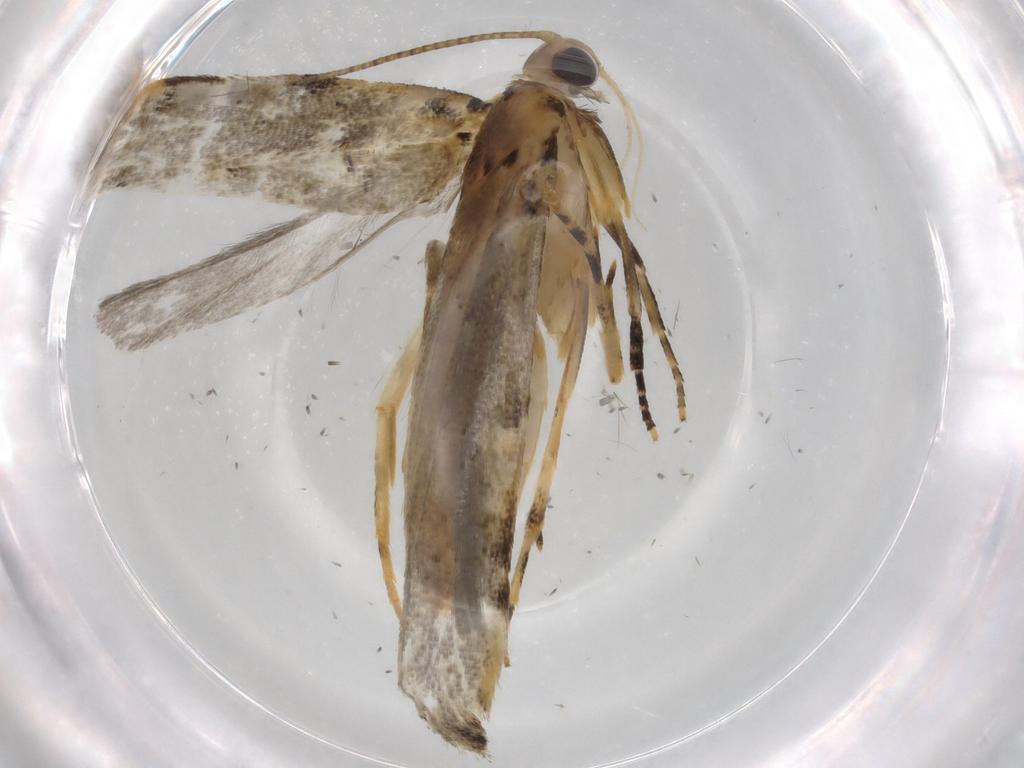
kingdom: Animalia
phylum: Arthropoda
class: Insecta
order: Lepidoptera
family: Gelechiidae
